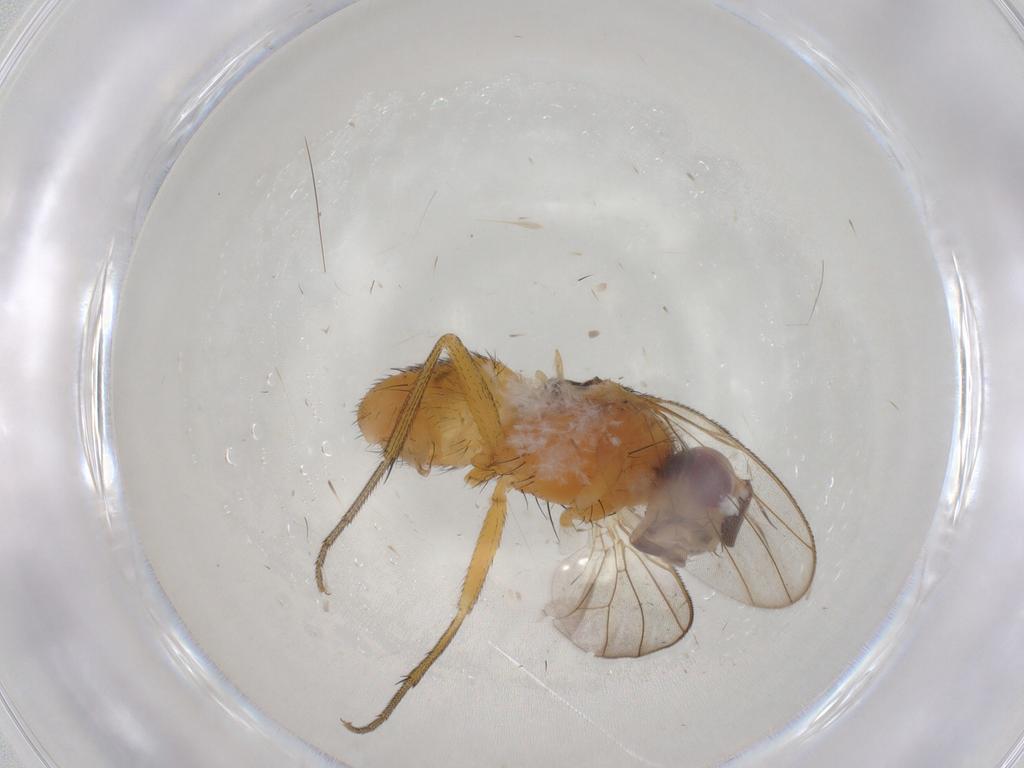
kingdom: Animalia
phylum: Arthropoda
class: Insecta
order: Diptera
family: Muscidae
